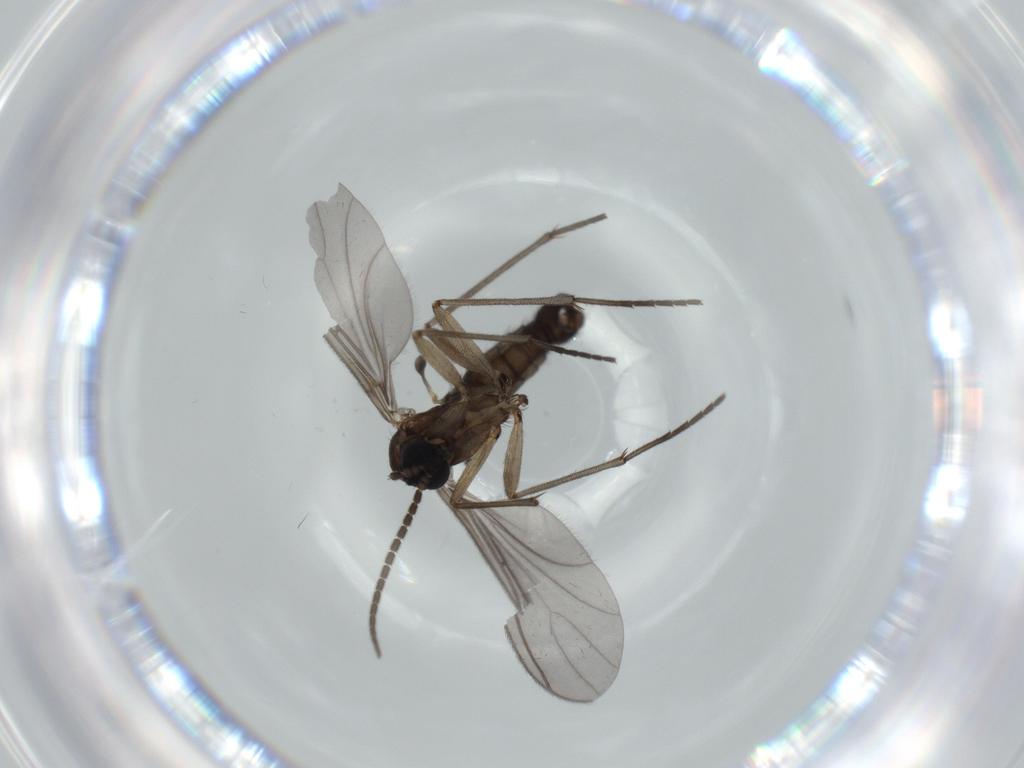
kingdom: Animalia
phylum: Arthropoda
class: Insecta
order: Diptera
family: Sciaridae
